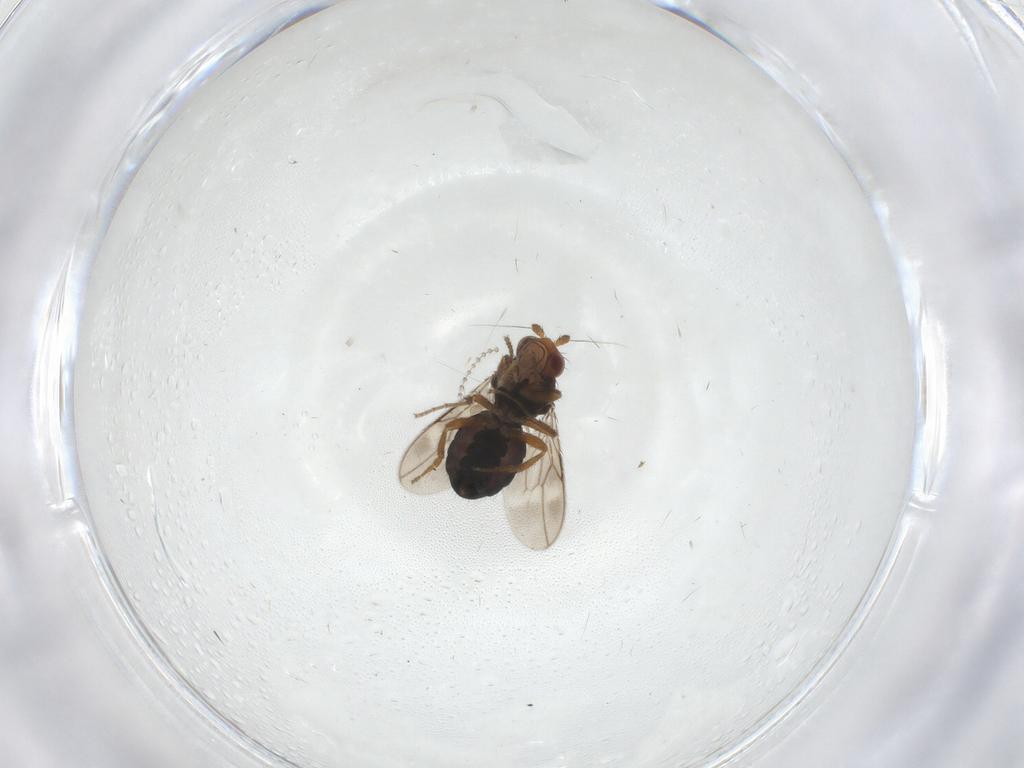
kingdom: Animalia
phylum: Arthropoda
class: Insecta
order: Diptera
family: Sphaeroceridae
